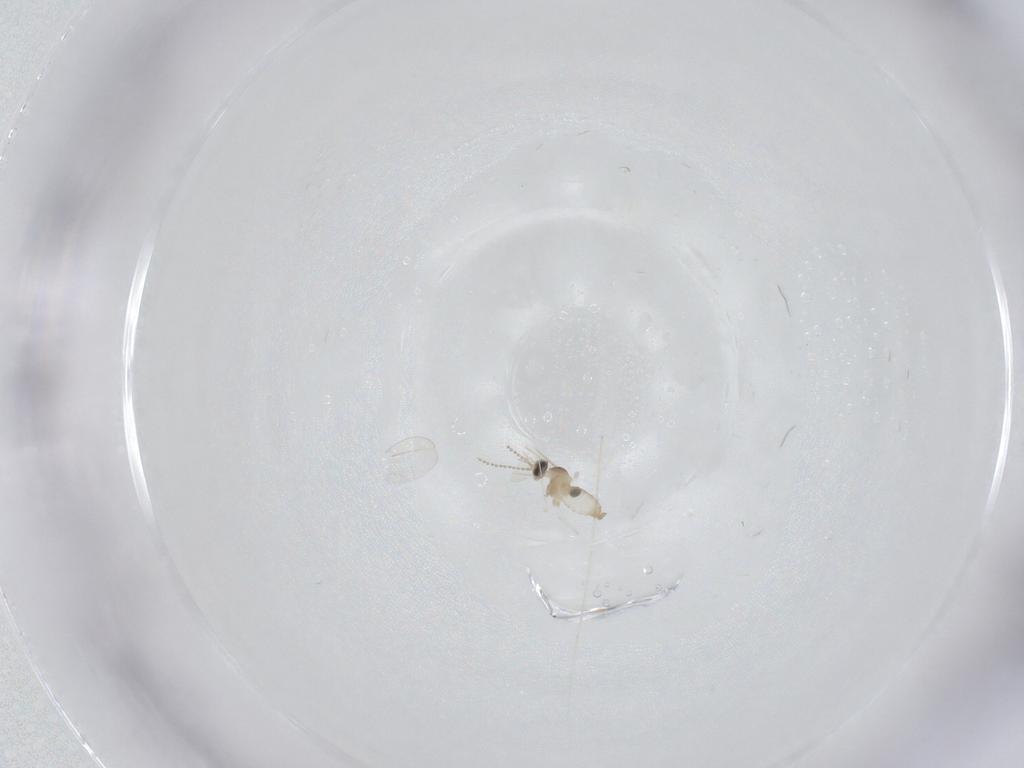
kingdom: Animalia
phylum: Arthropoda
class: Insecta
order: Diptera
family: Cecidomyiidae
